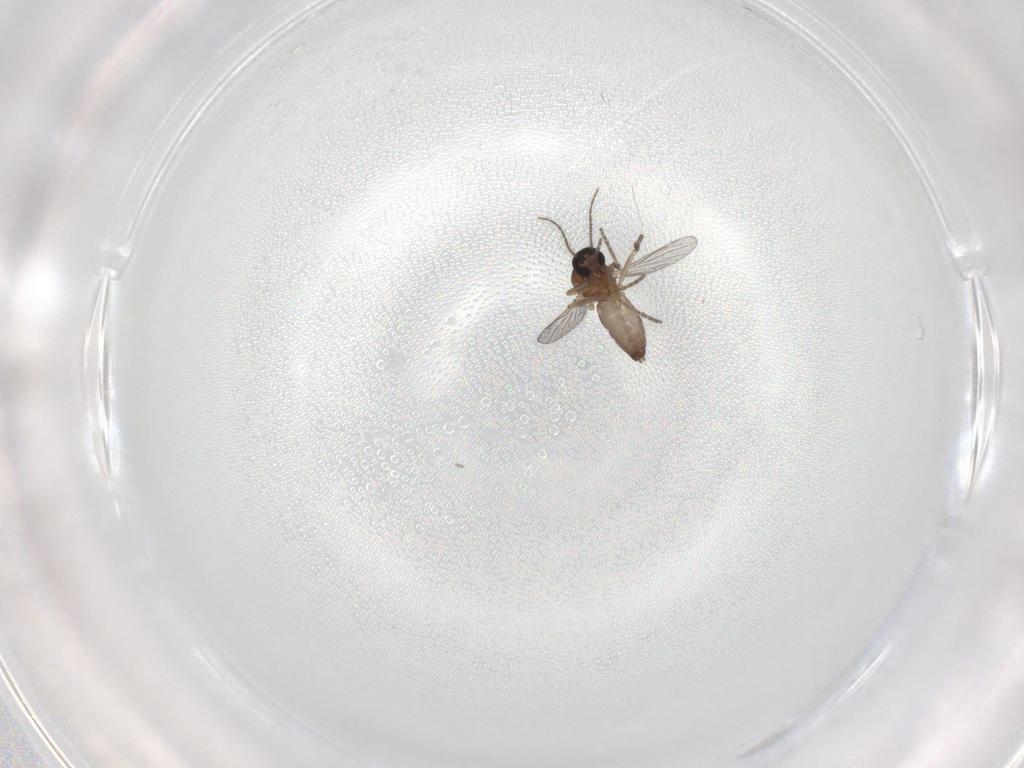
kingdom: Animalia
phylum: Arthropoda
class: Insecta
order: Diptera
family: Ceratopogonidae
